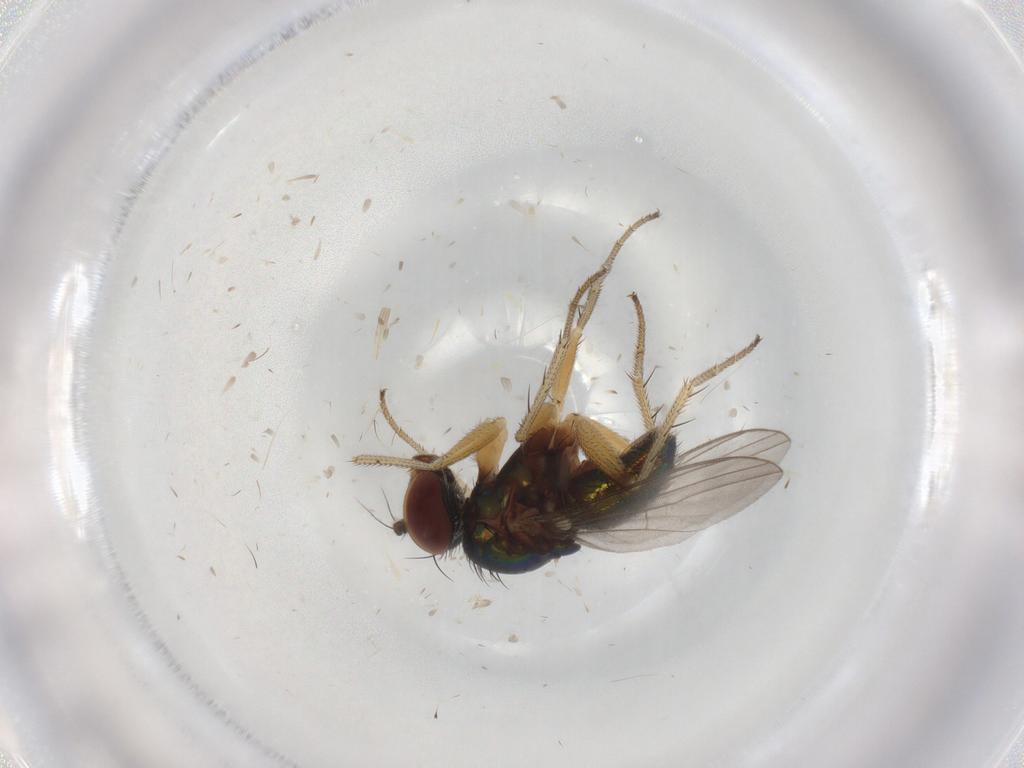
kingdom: Animalia
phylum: Arthropoda
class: Insecta
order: Diptera
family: Ceratopogonidae
